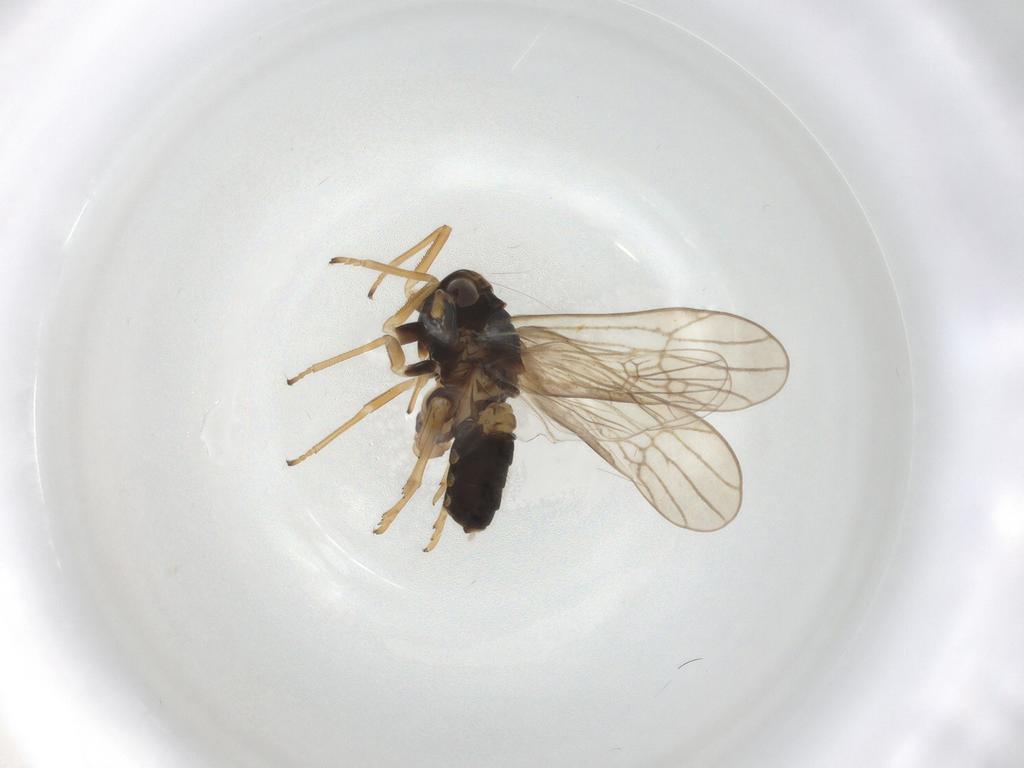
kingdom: Animalia
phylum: Arthropoda
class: Insecta
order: Hemiptera
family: Delphacidae
